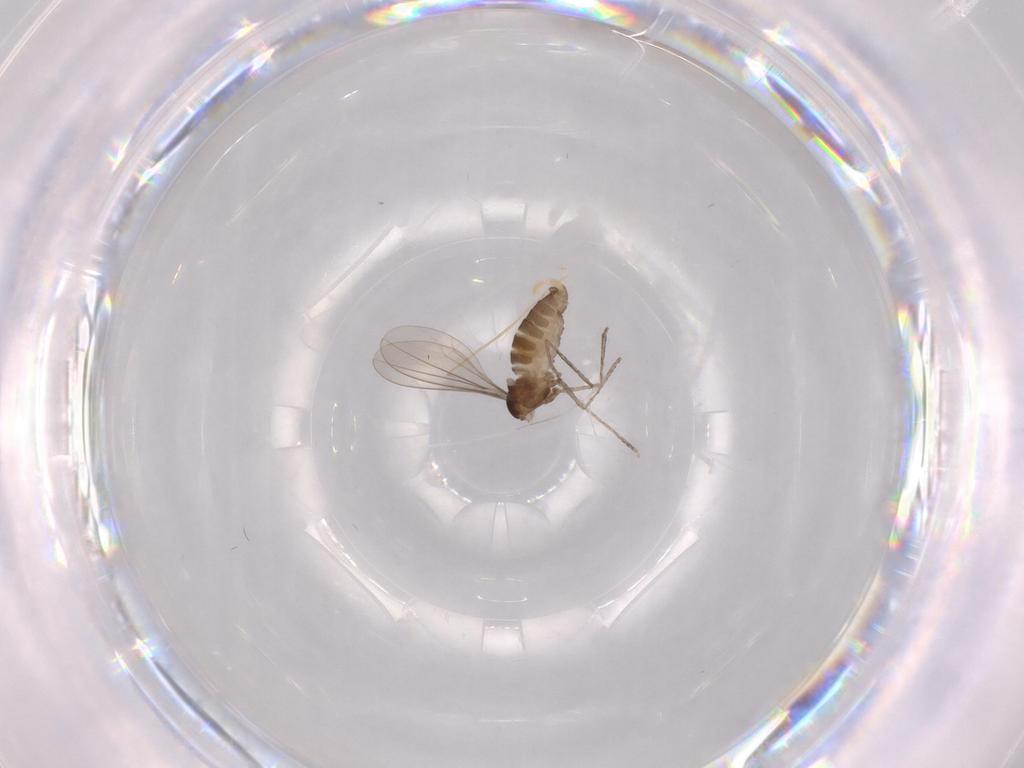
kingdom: Animalia
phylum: Arthropoda
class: Insecta
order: Diptera
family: Cecidomyiidae
